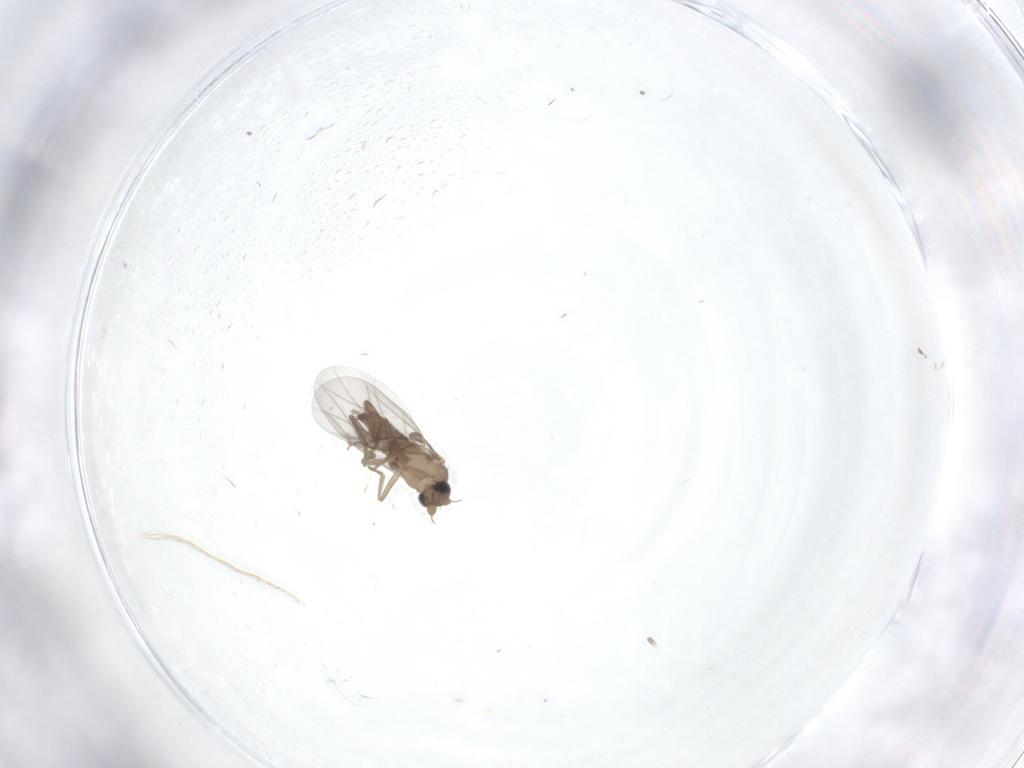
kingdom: Animalia
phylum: Arthropoda
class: Insecta
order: Diptera
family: Chironomidae
